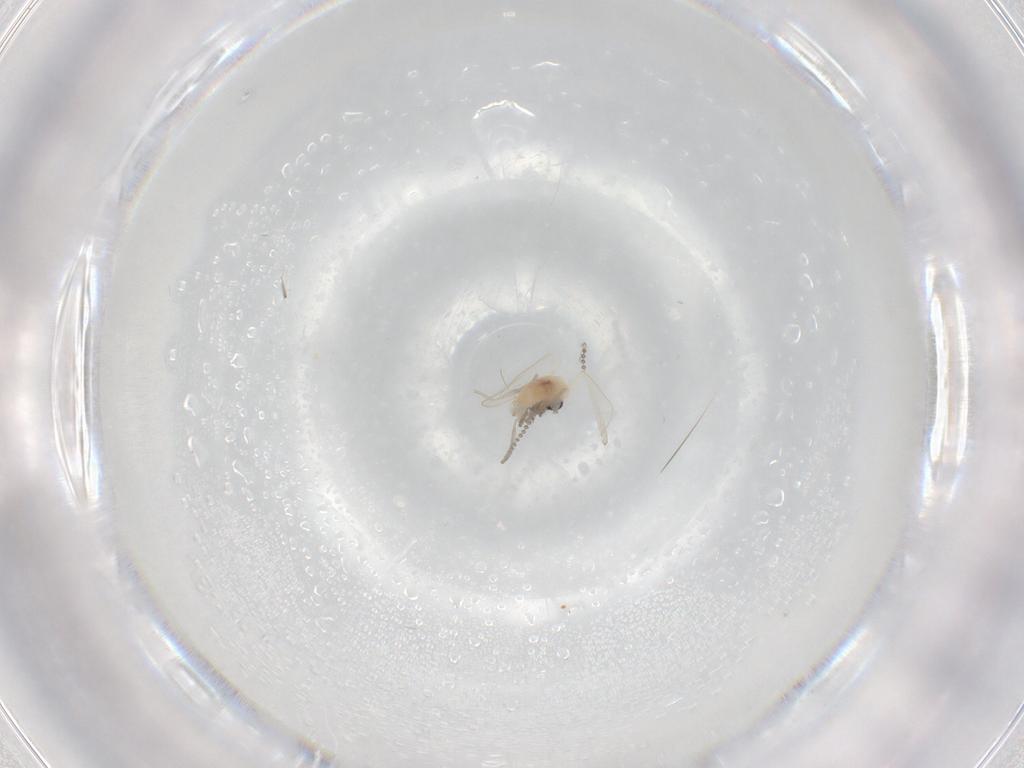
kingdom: Animalia
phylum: Arthropoda
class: Insecta
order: Diptera
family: Psychodidae
